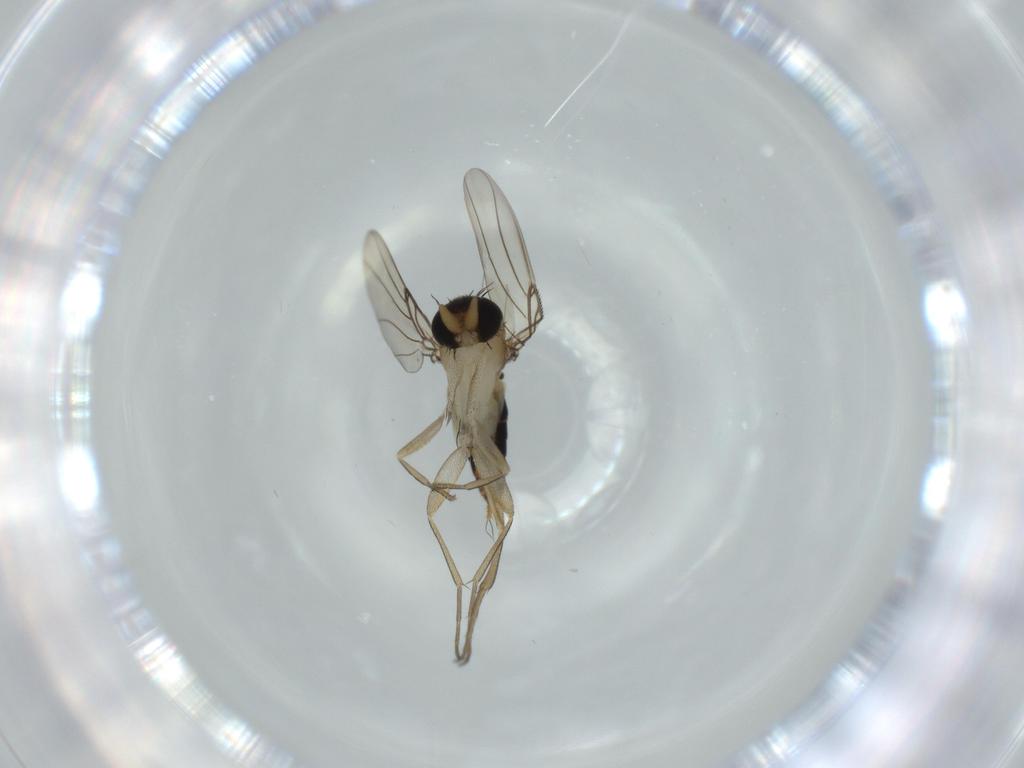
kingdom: Animalia
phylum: Arthropoda
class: Insecta
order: Diptera
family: Phoridae
